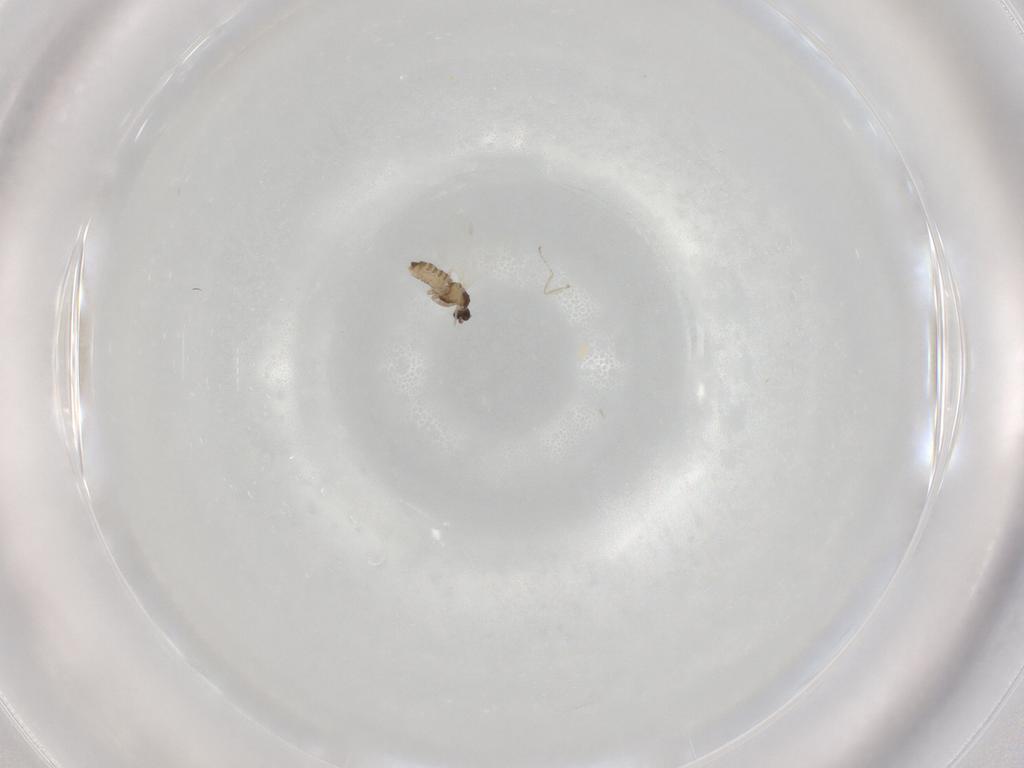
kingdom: Animalia
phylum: Arthropoda
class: Insecta
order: Diptera
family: Cecidomyiidae
